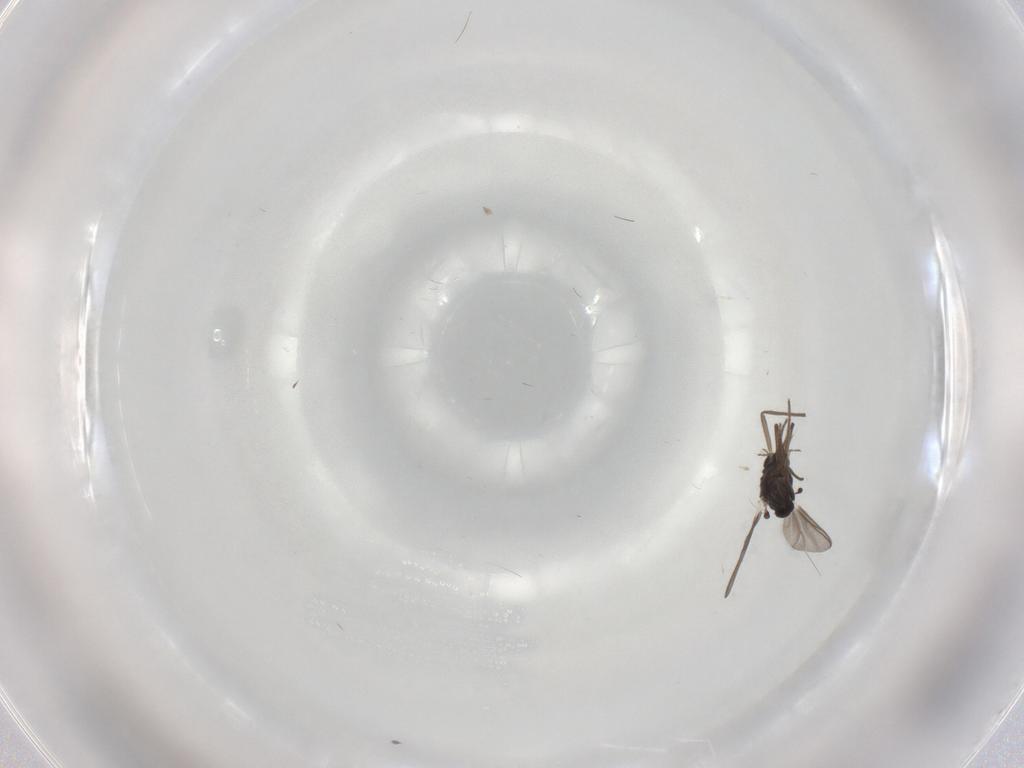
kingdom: Animalia
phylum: Arthropoda
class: Insecta
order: Diptera
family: Chironomidae
